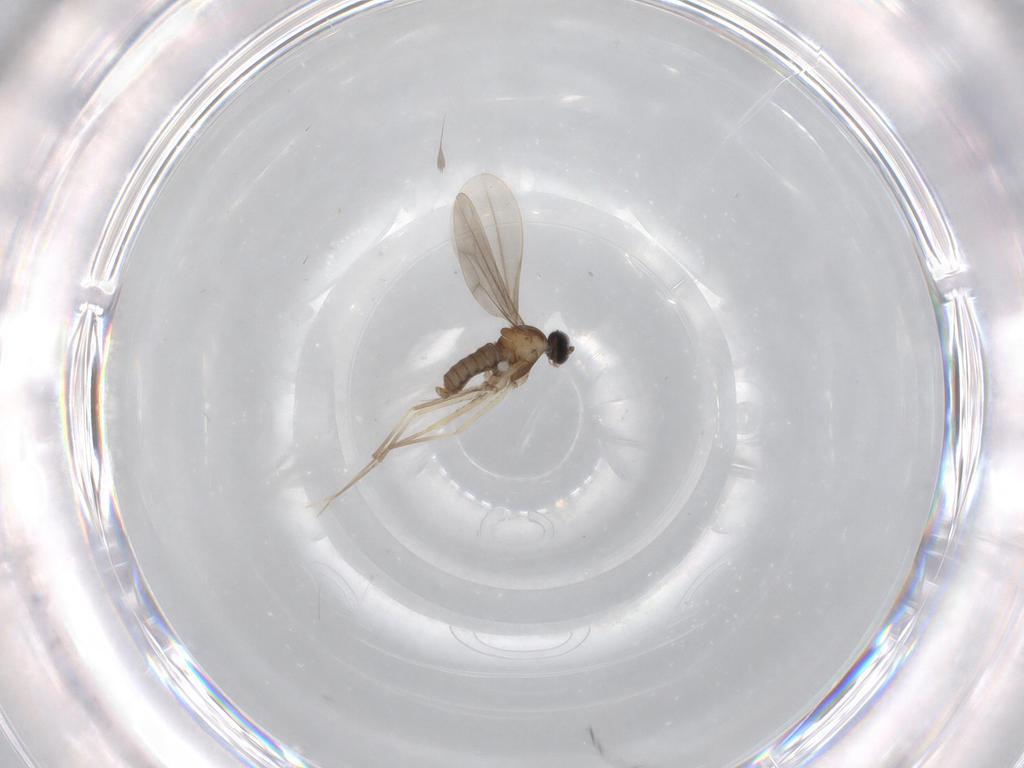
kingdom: Animalia
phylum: Arthropoda
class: Insecta
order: Diptera
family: Cecidomyiidae
